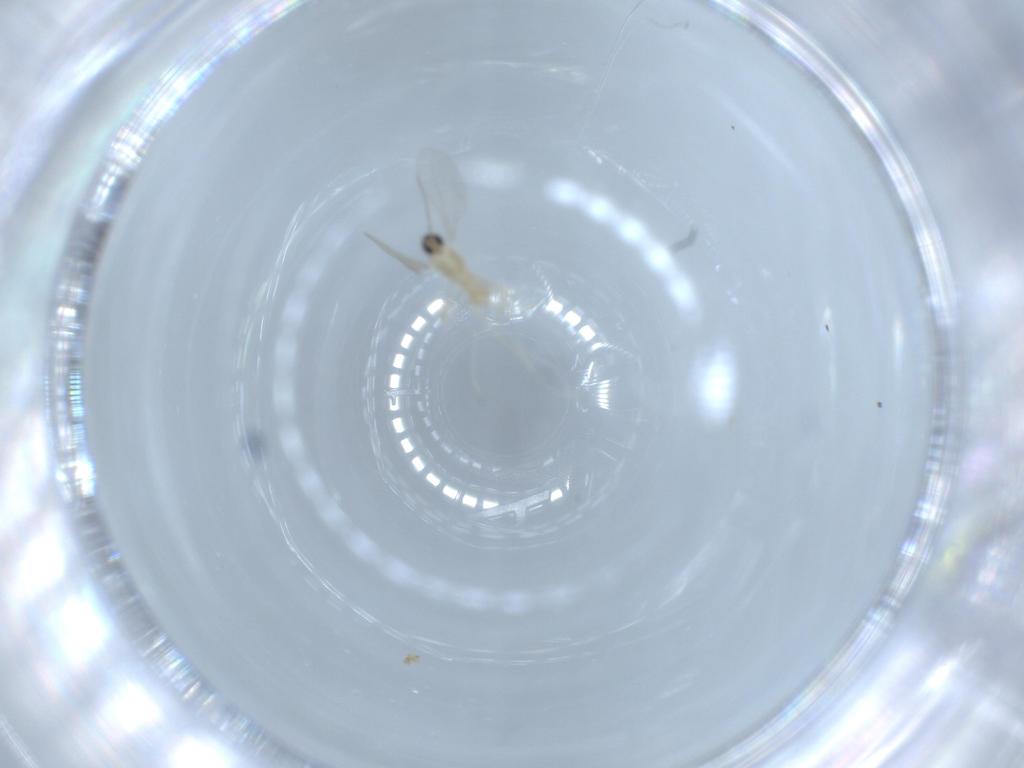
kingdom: Animalia
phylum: Arthropoda
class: Insecta
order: Diptera
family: Cecidomyiidae
